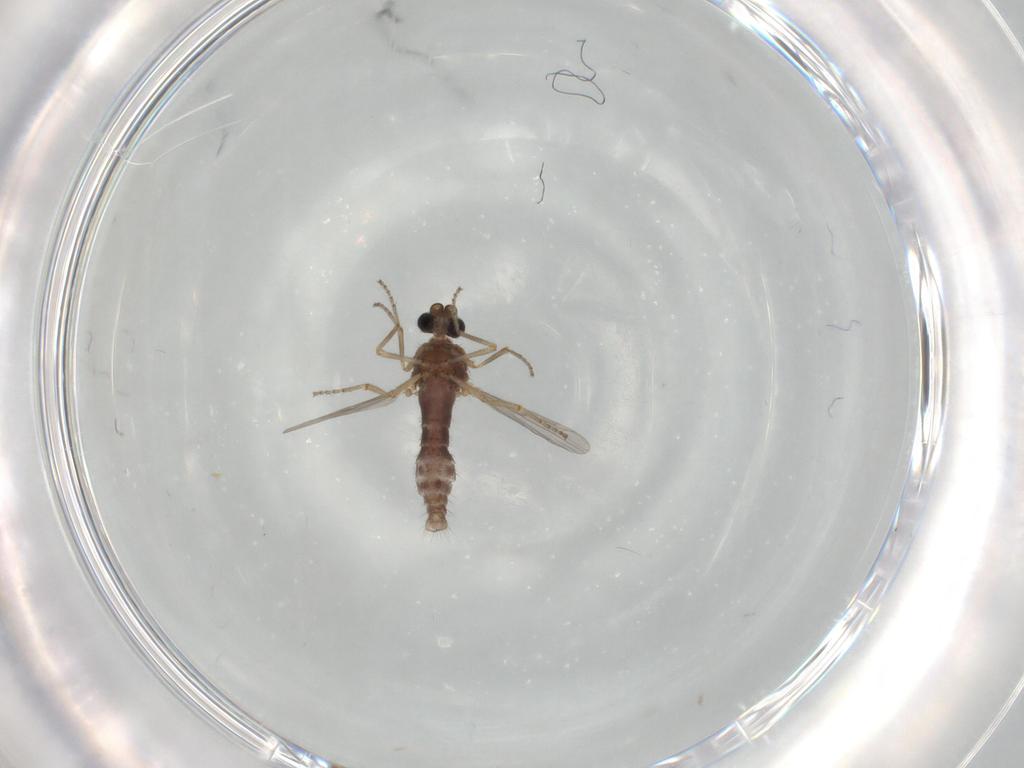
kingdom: Animalia
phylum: Arthropoda
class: Insecta
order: Diptera
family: Ceratopogonidae
